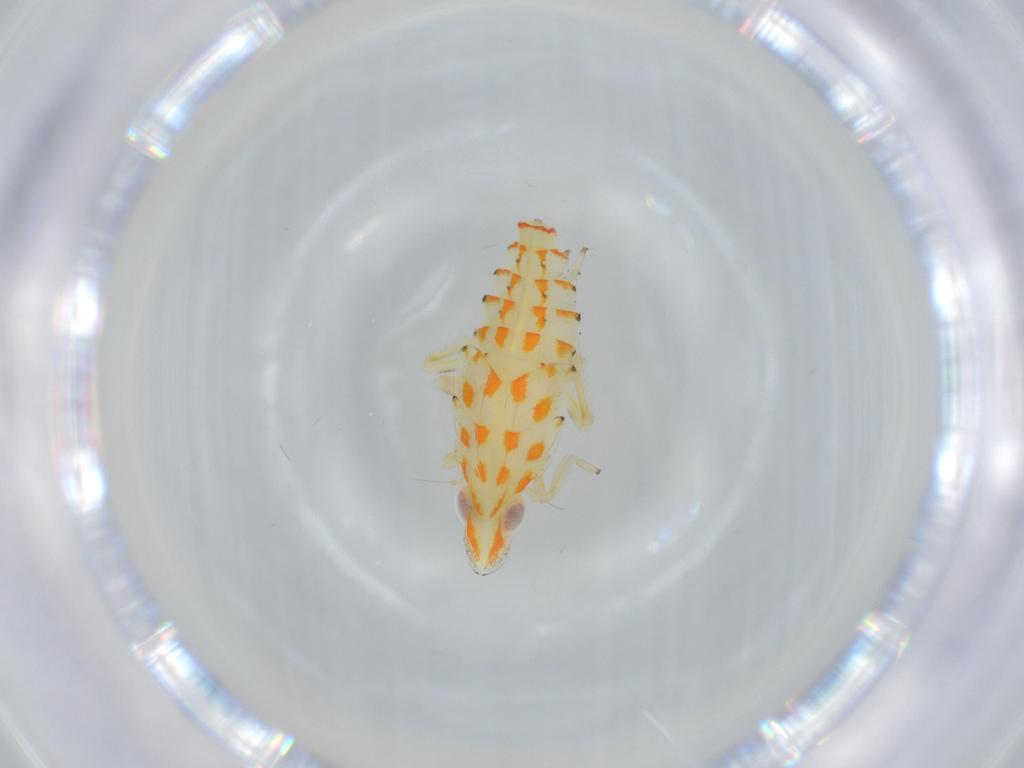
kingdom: Animalia
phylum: Arthropoda
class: Insecta
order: Hemiptera
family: Tropiduchidae
